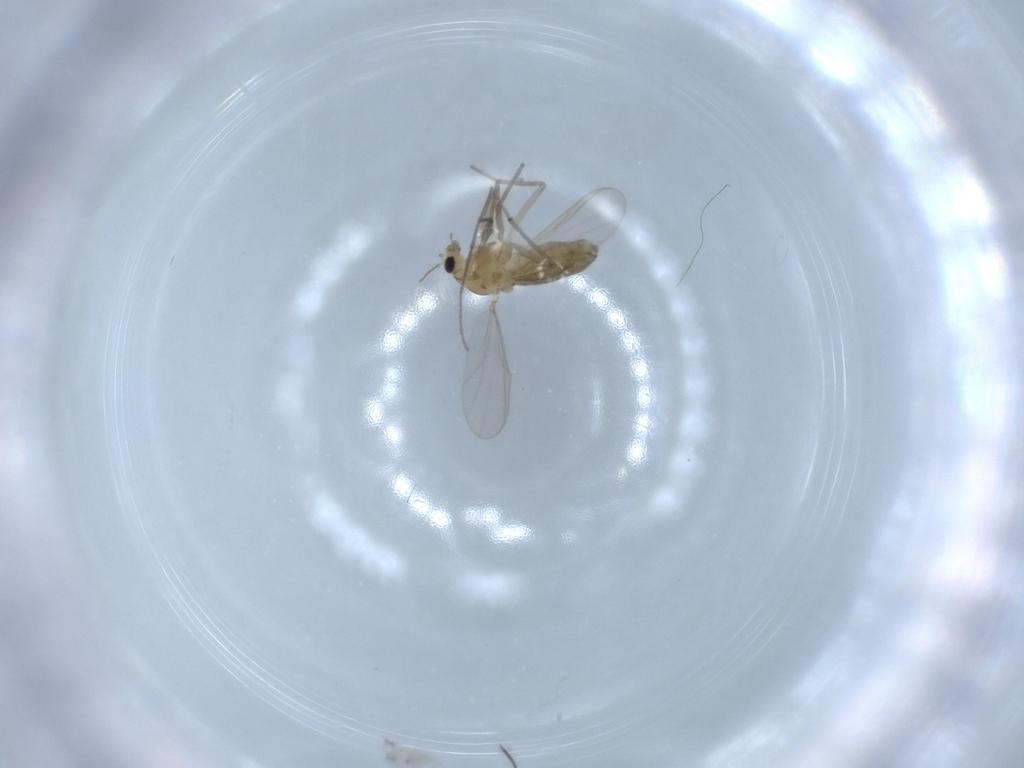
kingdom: Animalia
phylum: Arthropoda
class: Insecta
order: Diptera
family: Chironomidae
